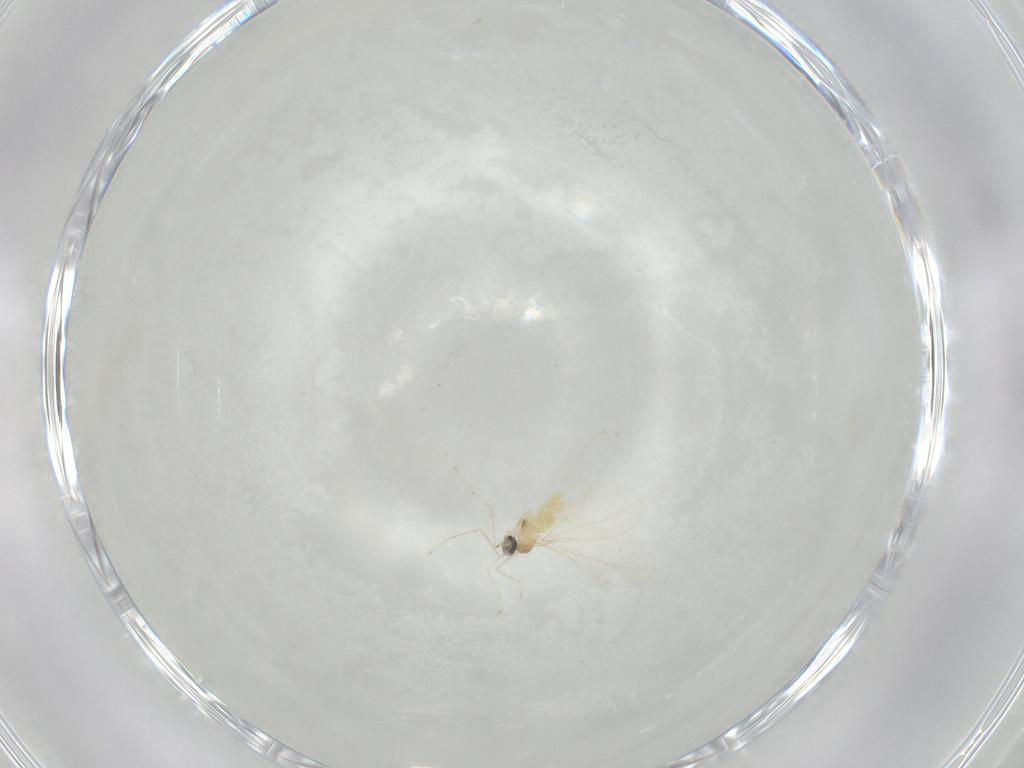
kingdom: Animalia
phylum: Arthropoda
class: Insecta
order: Diptera
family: Cecidomyiidae
